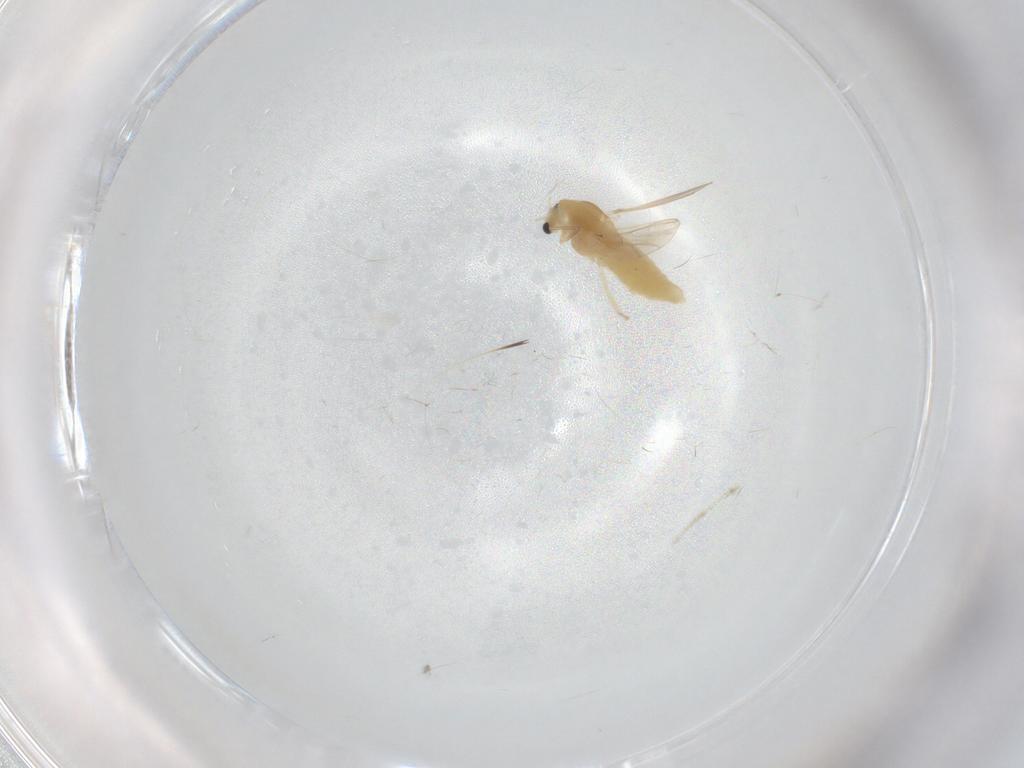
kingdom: Animalia
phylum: Arthropoda
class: Insecta
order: Diptera
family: Chironomidae
